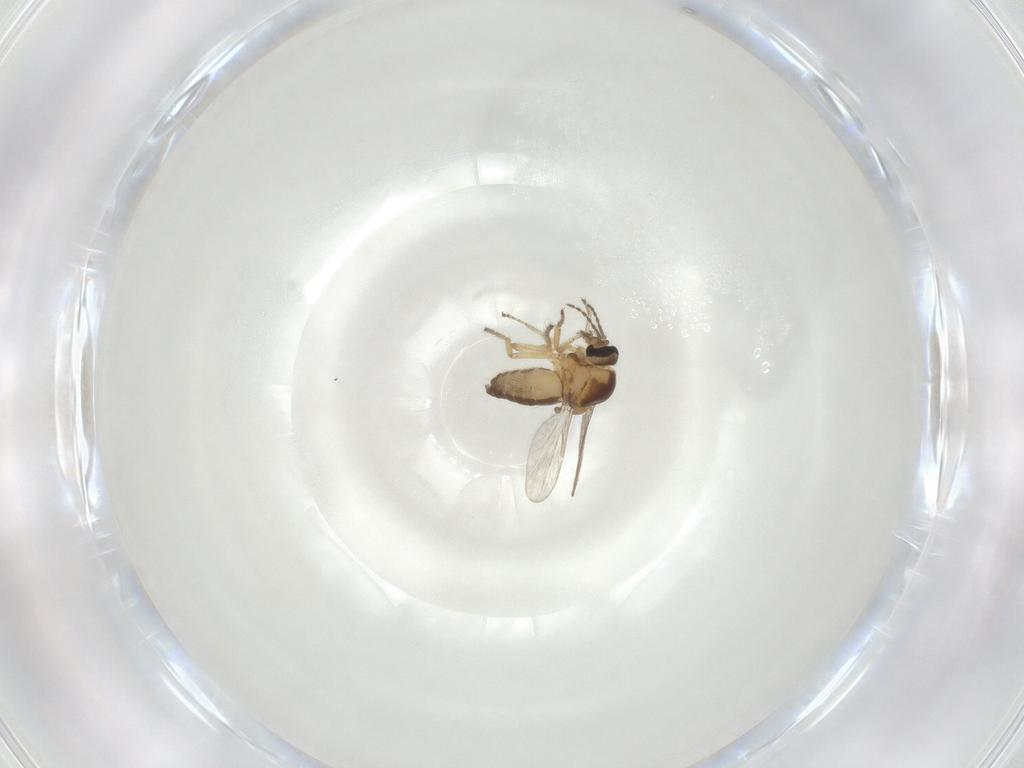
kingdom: Animalia
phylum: Arthropoda
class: Insecta
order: Diptera
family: Ceratopogonidae
